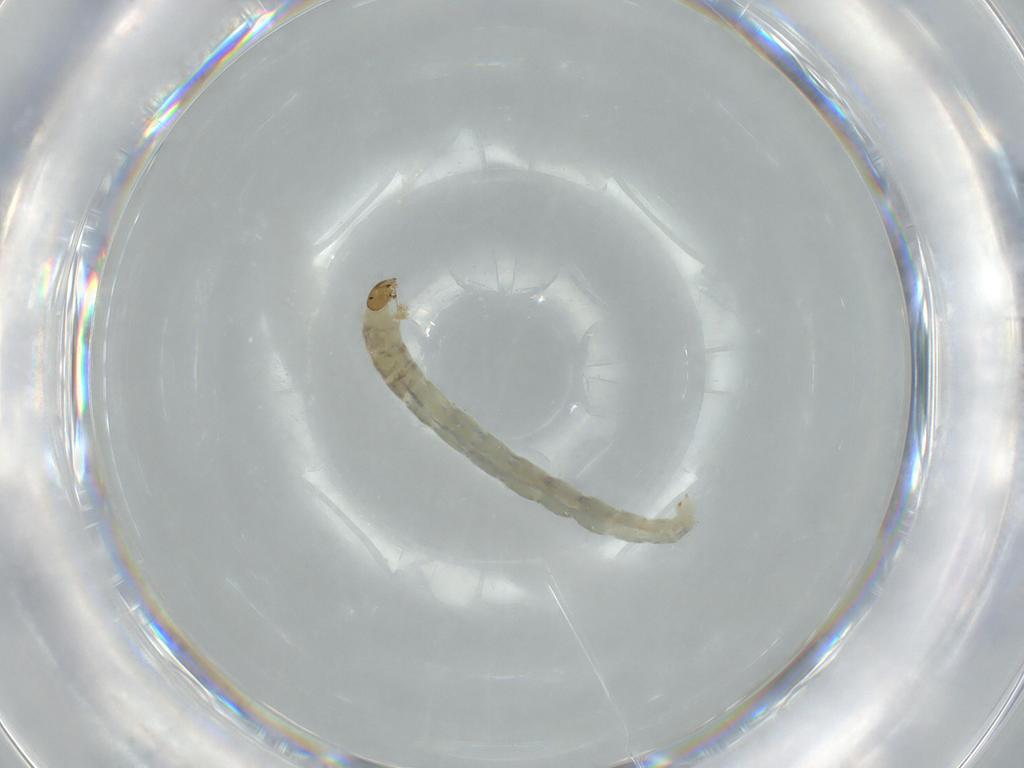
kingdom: Animalia
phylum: Arthropoda
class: Insecta
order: Diptera
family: Chironomidae
